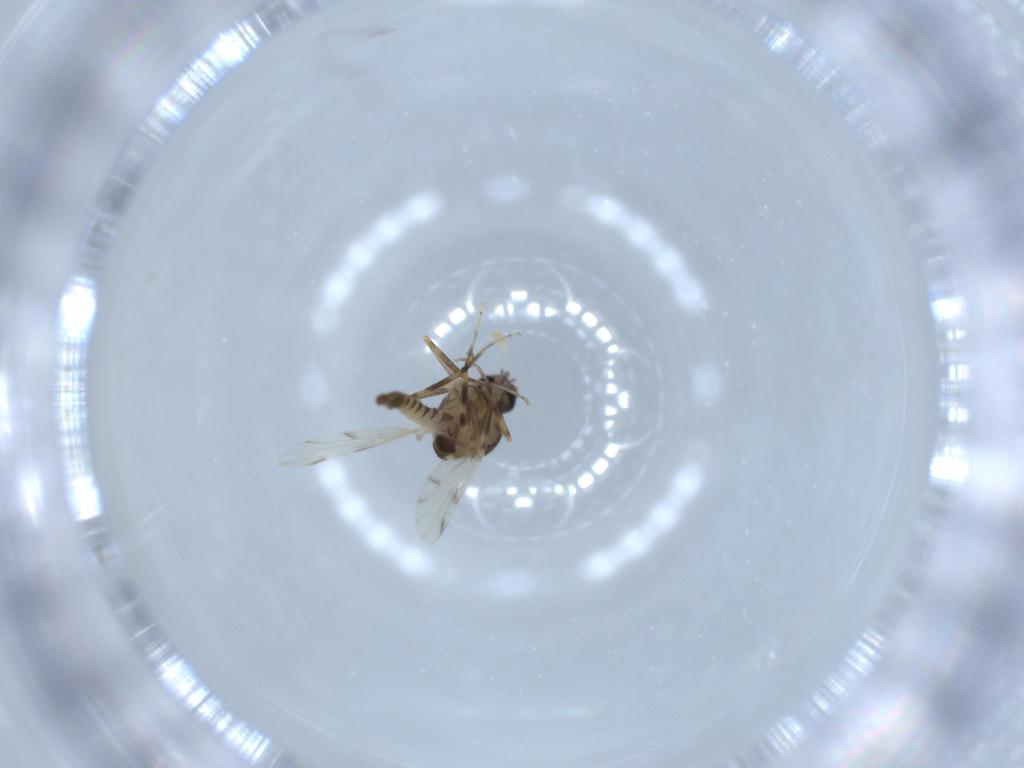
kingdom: Animalia
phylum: Arthropoda
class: Insecta
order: Diptera
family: Ceratopogonidae
